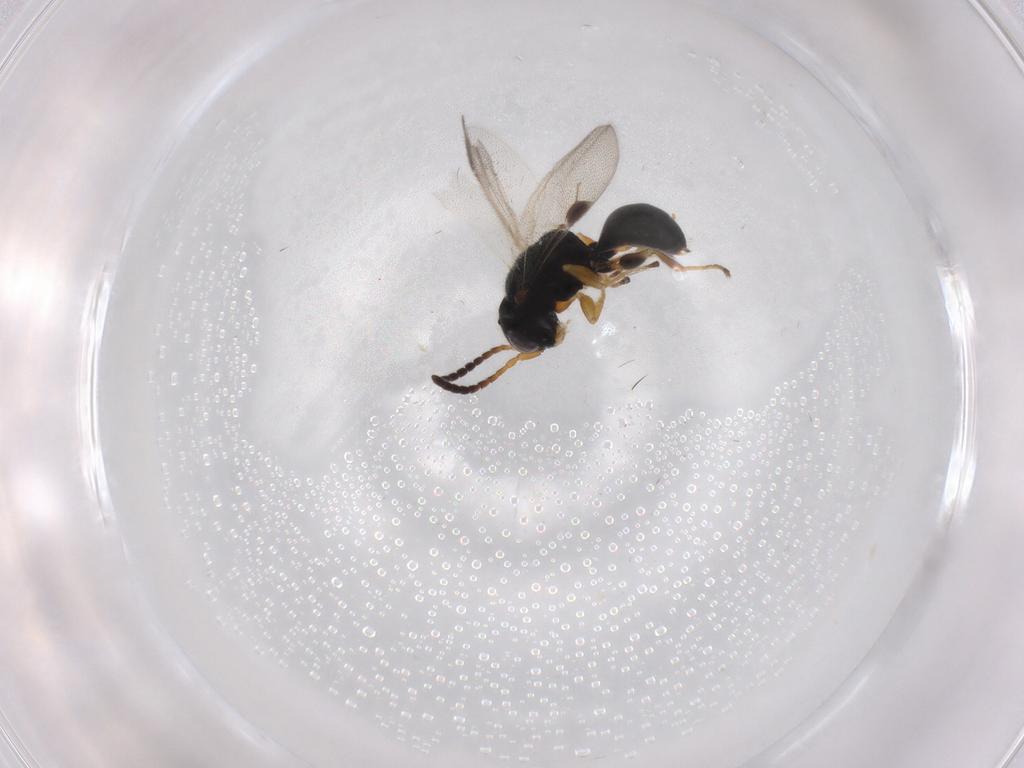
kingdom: Animalia
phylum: Arthropoda
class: Insecta
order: Hymenoptera
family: Dryinidae
